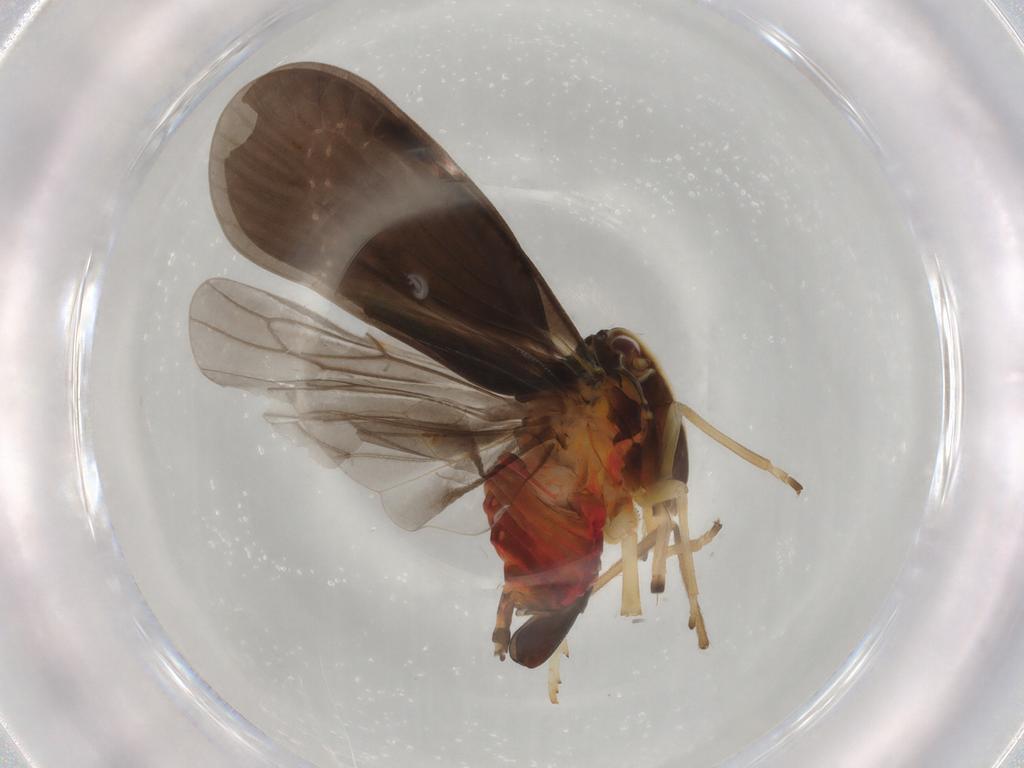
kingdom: Animalia
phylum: Arthropoda
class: Insecta
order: Hemiptera
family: Derbidae
